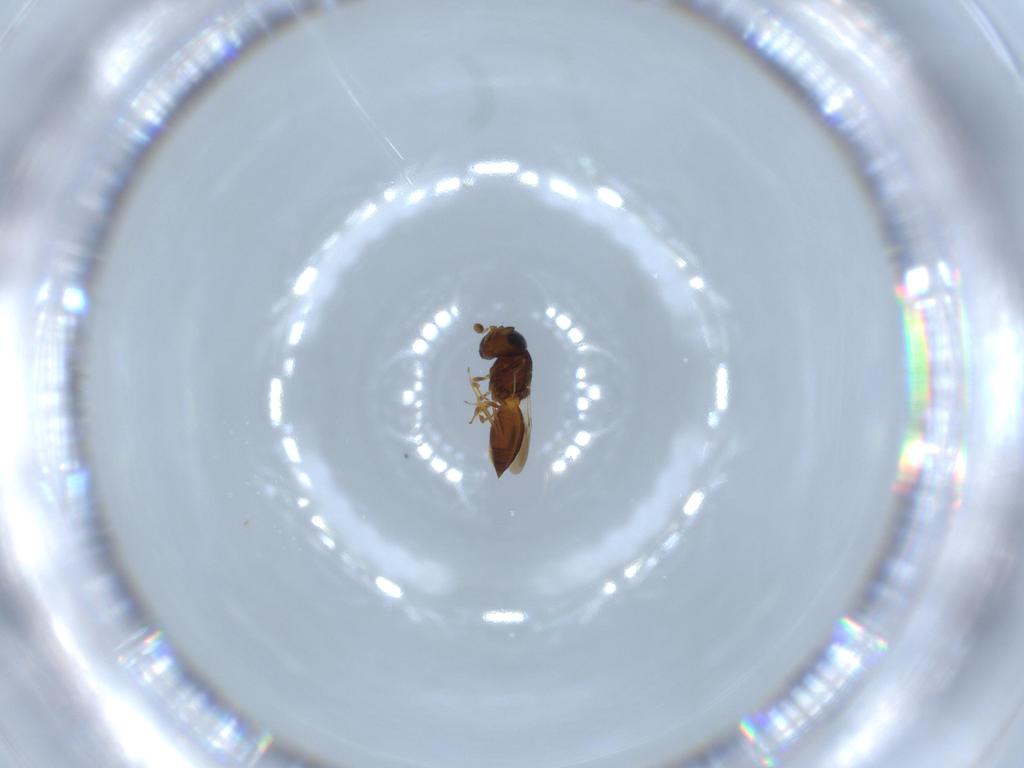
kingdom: Animalia
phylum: Arthropoda
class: Insecta
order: Hymenoptera
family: Scelionidae
